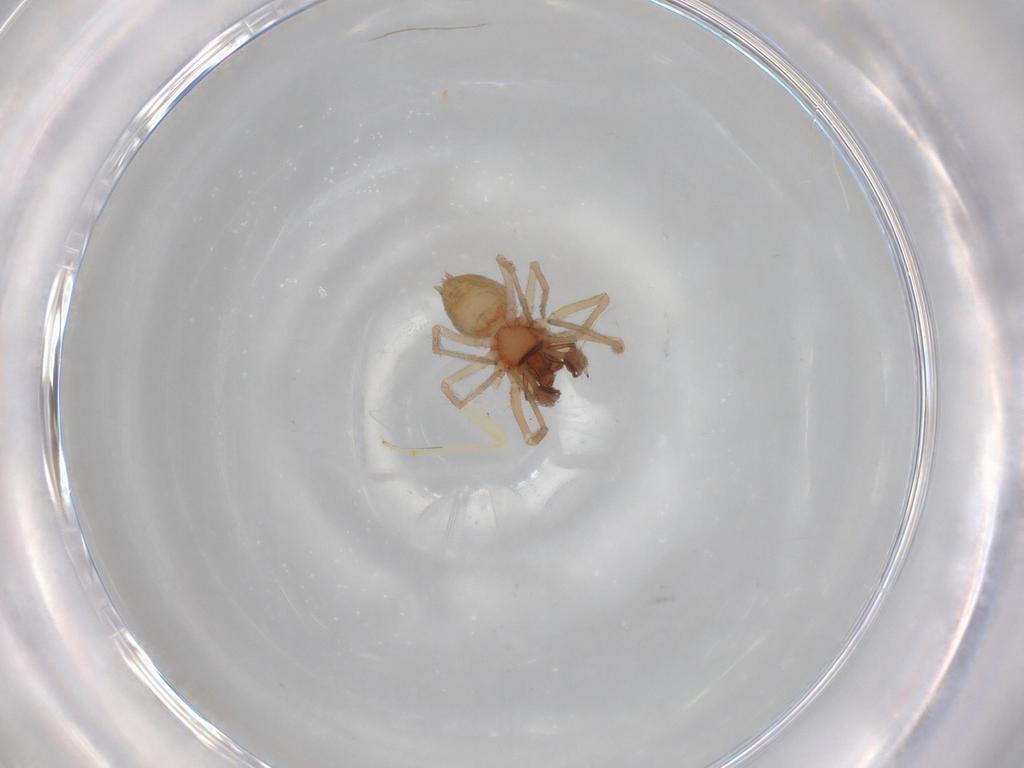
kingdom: Animalia
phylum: Arthropoda
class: Arachnida
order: Araneae
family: Dictynidae
